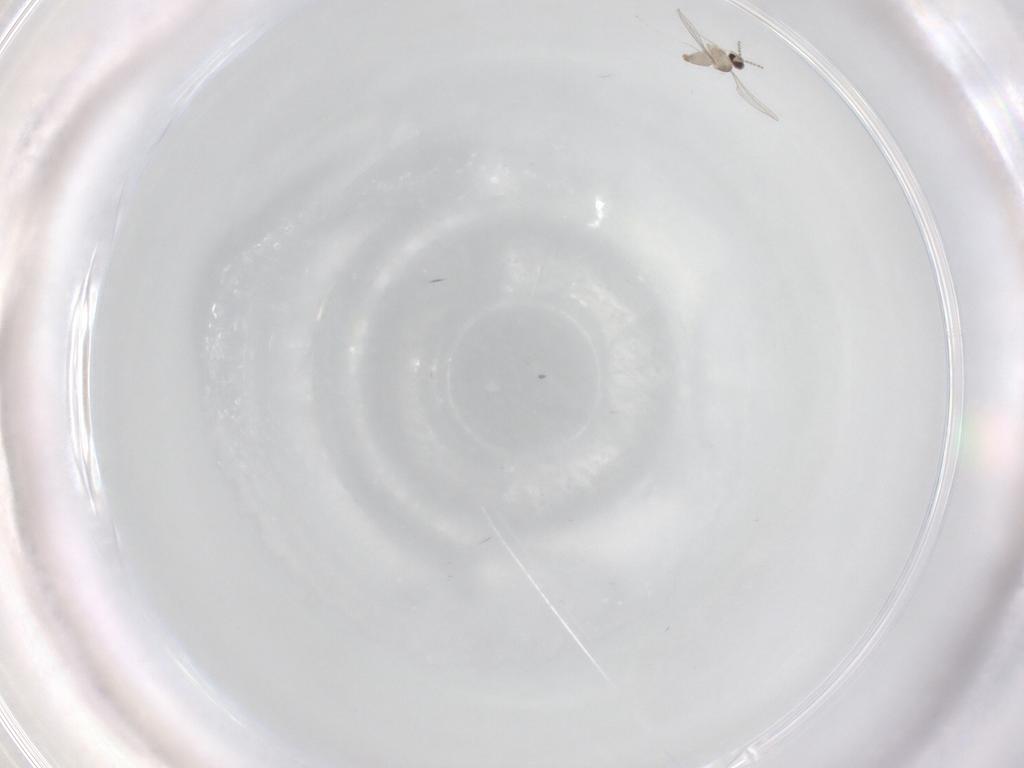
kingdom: Animalia
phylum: Arthropoda
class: Insecta
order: Diptera
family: Cecidomyiidae
